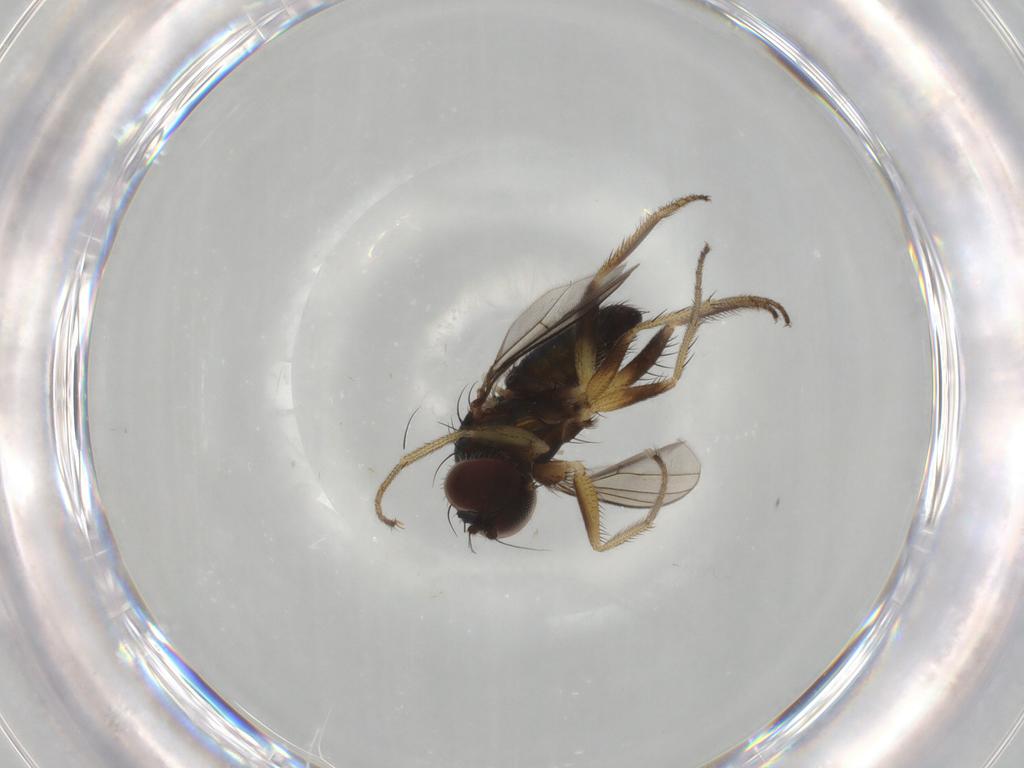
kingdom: Animalia
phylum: Arthropoda
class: Insecta
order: Diptera
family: Dolichopodidae
